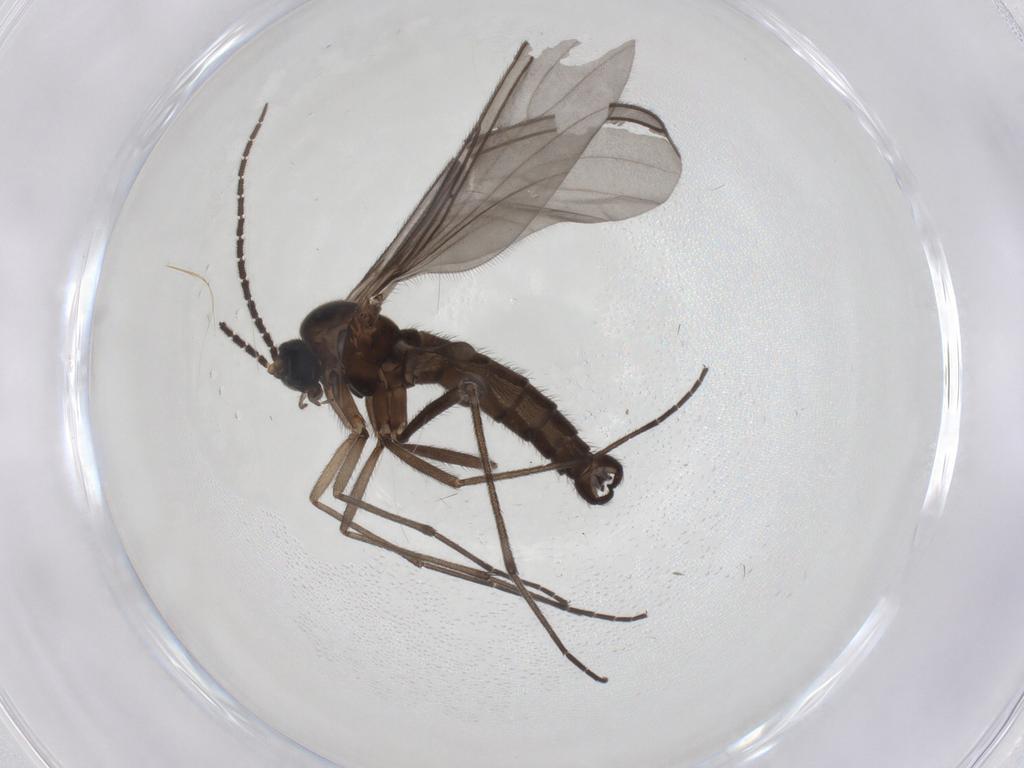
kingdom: Animalia
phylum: Arthropoda
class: Insecta
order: Diptera
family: Sciaridae
